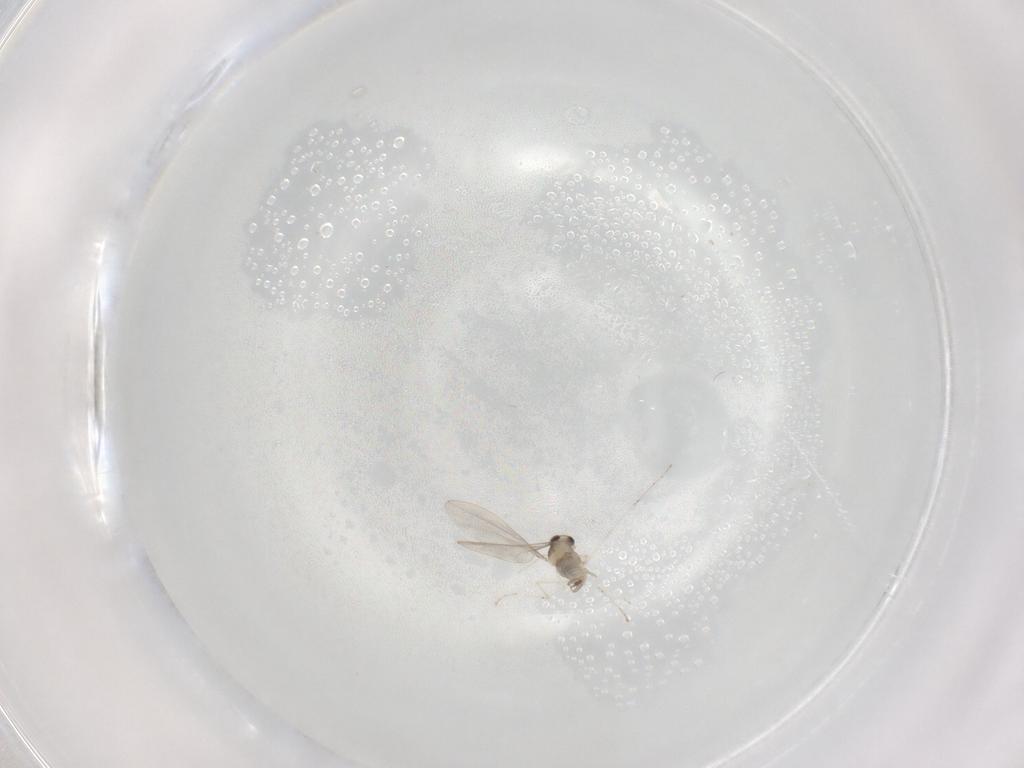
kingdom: Animalia
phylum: Arthropoda
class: Insecta
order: Diptera
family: Cecidomyiidae
